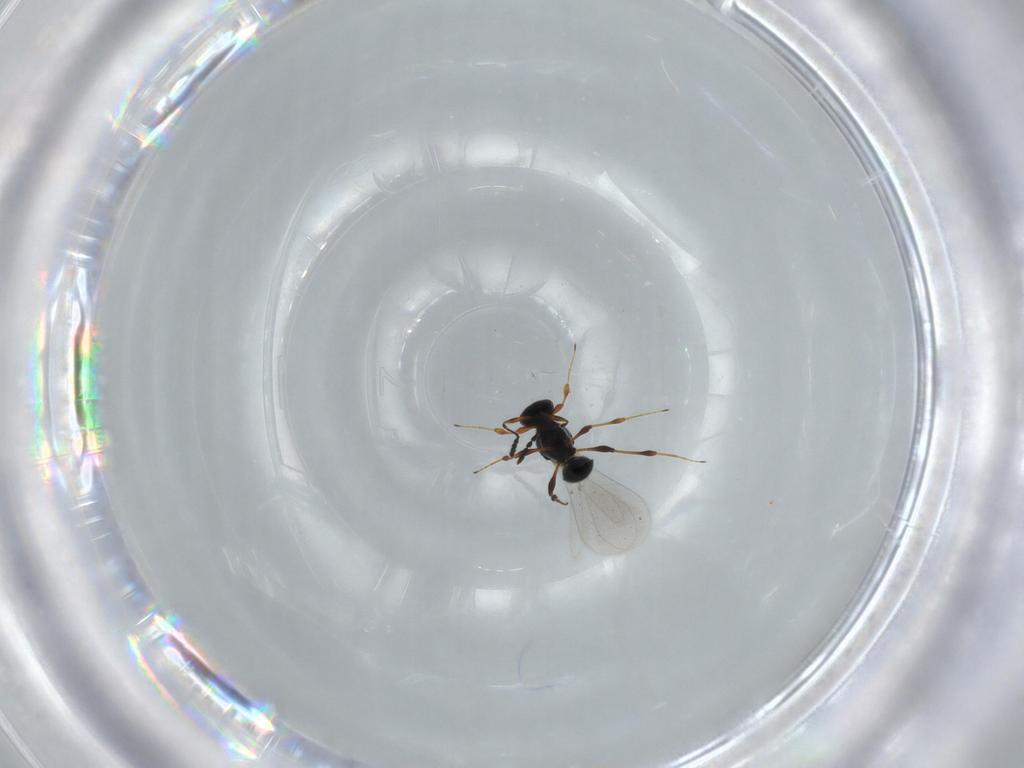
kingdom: Animalia
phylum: Arthropoda
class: Insecta
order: Hymenoptera
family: Platygastridae
